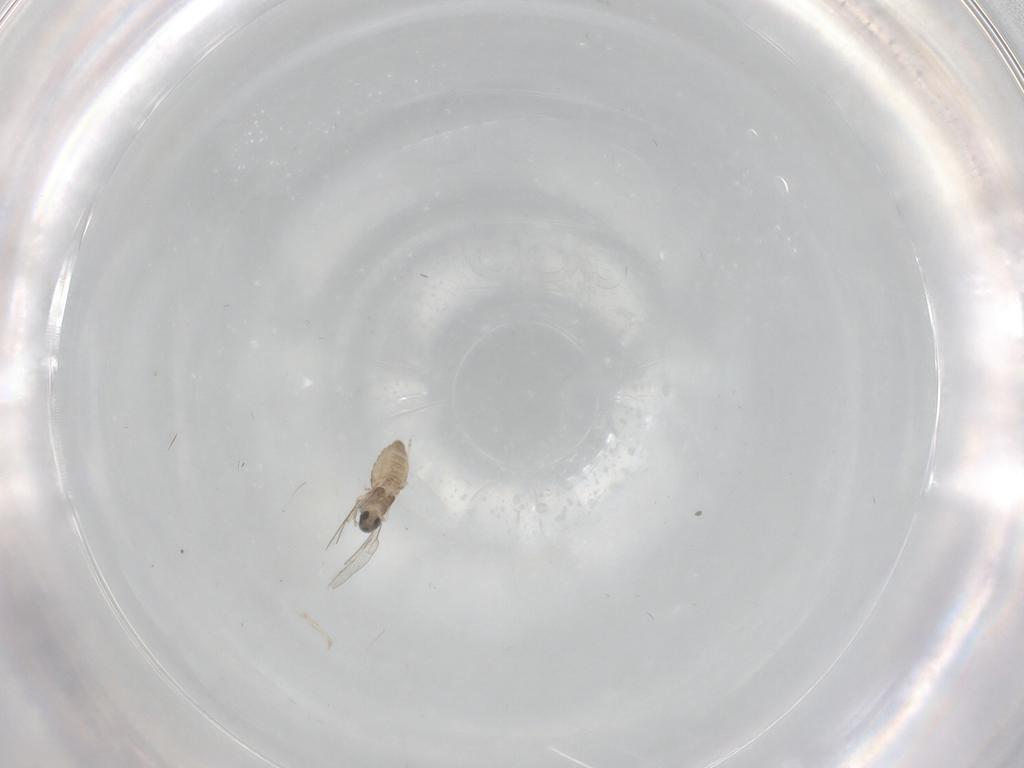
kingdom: Animalia
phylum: Arthropoda
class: Insecta
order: Diptera
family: Cecidomyiidae
